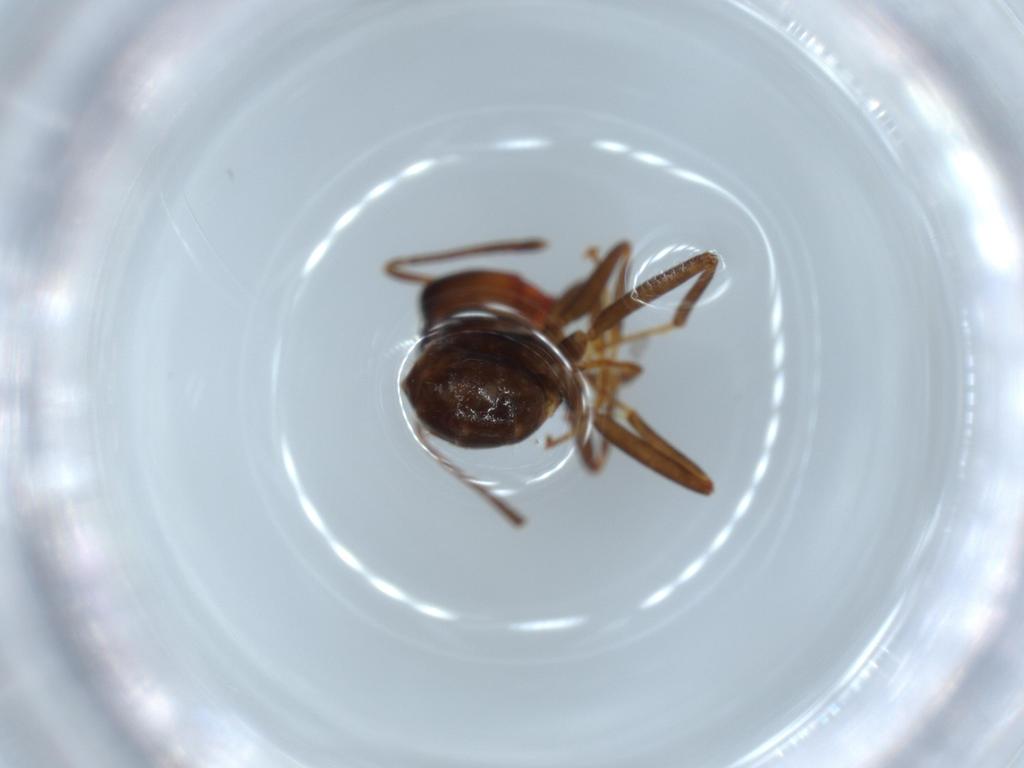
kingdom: Animalia
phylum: Arthropoda
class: Insecta
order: Hymenoptera
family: Formicidae
